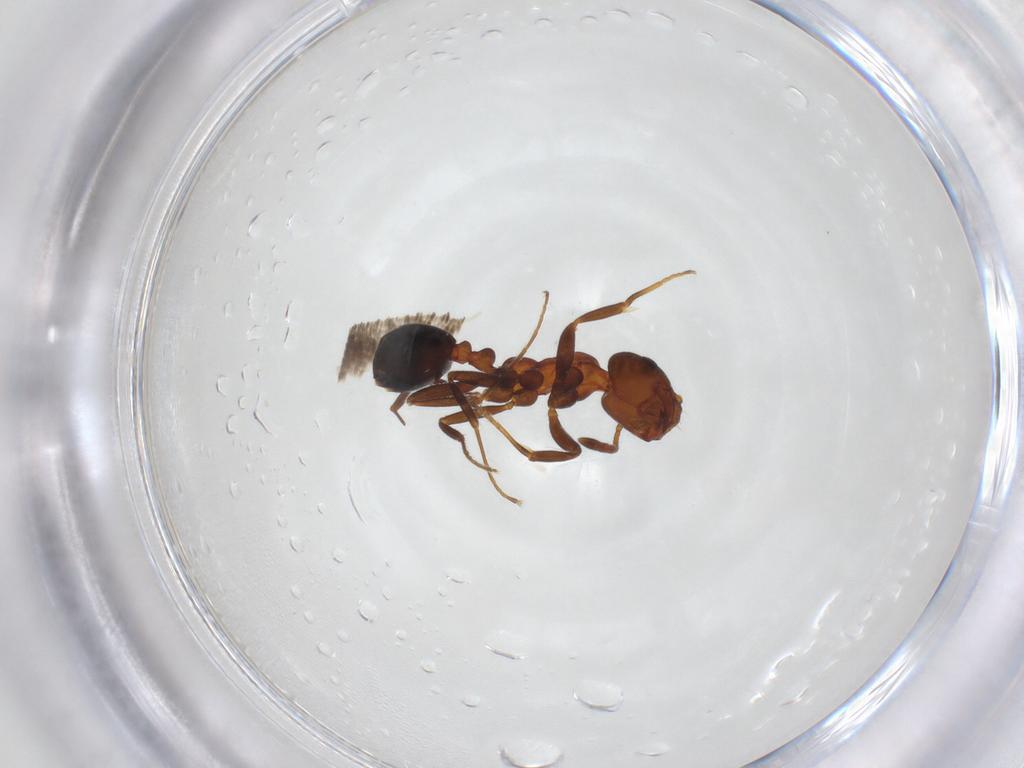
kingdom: Animalia
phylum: Arthropoda
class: Insecta
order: Hymenoptera
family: Formicidae
